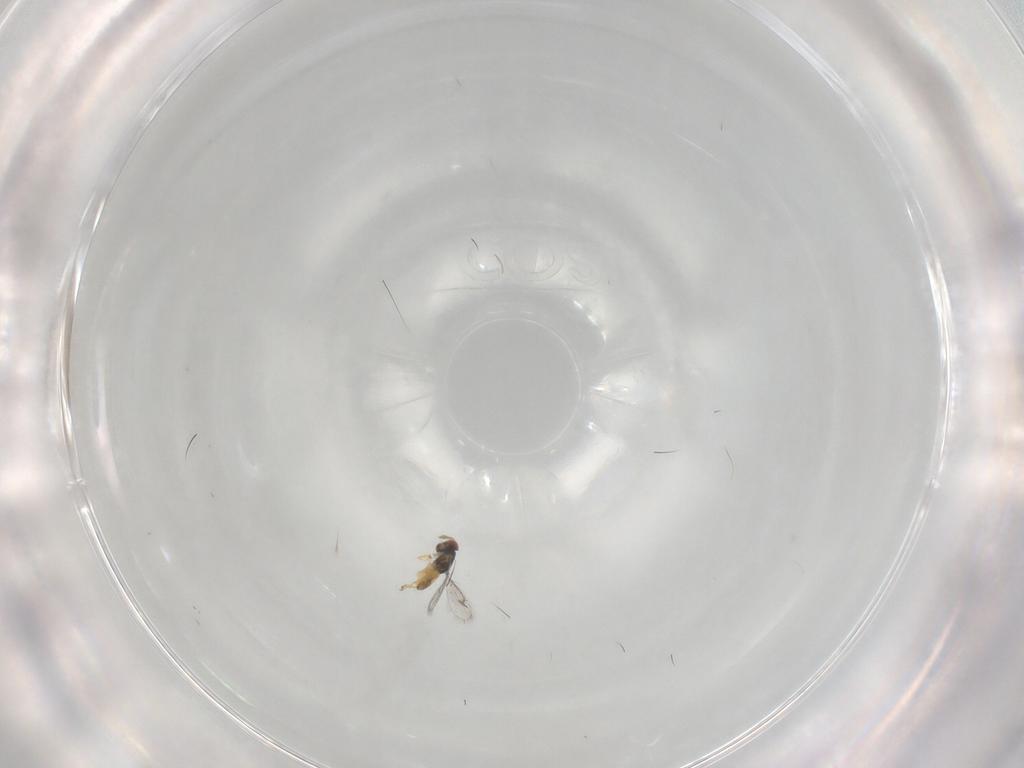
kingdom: Animalia
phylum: Arthropoda
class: Insecta
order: Hymenoptera
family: Eulophidae
